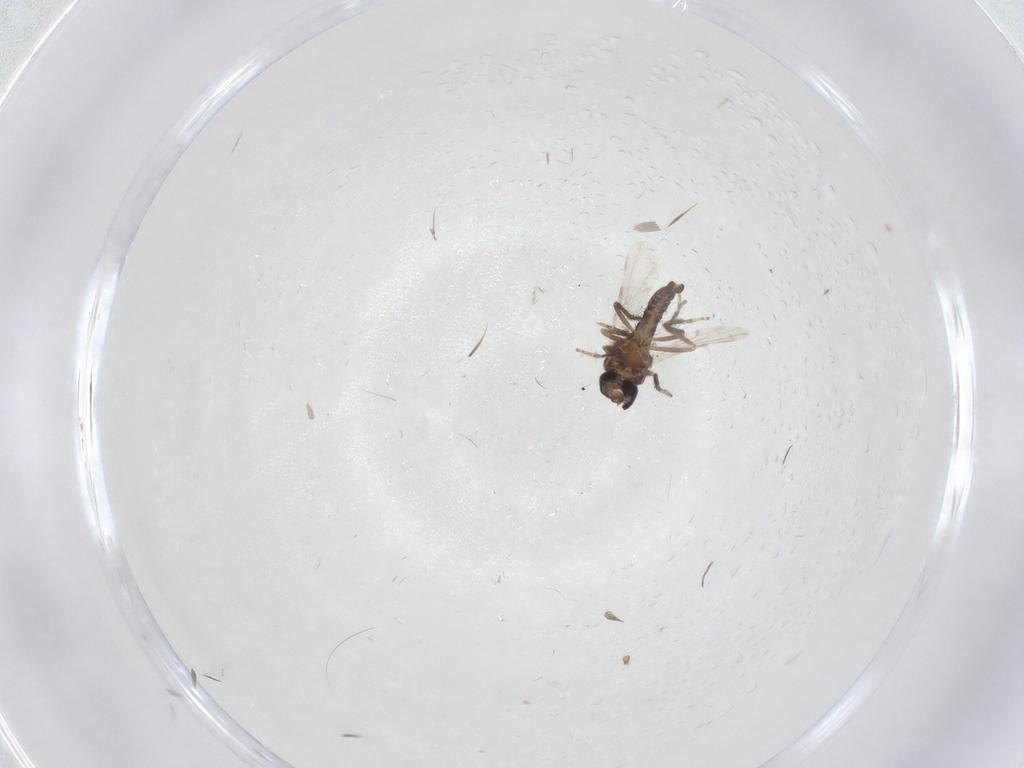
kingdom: Animalia
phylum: Arthropoda
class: Insecta
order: Diptera
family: Ceratopogonidae
